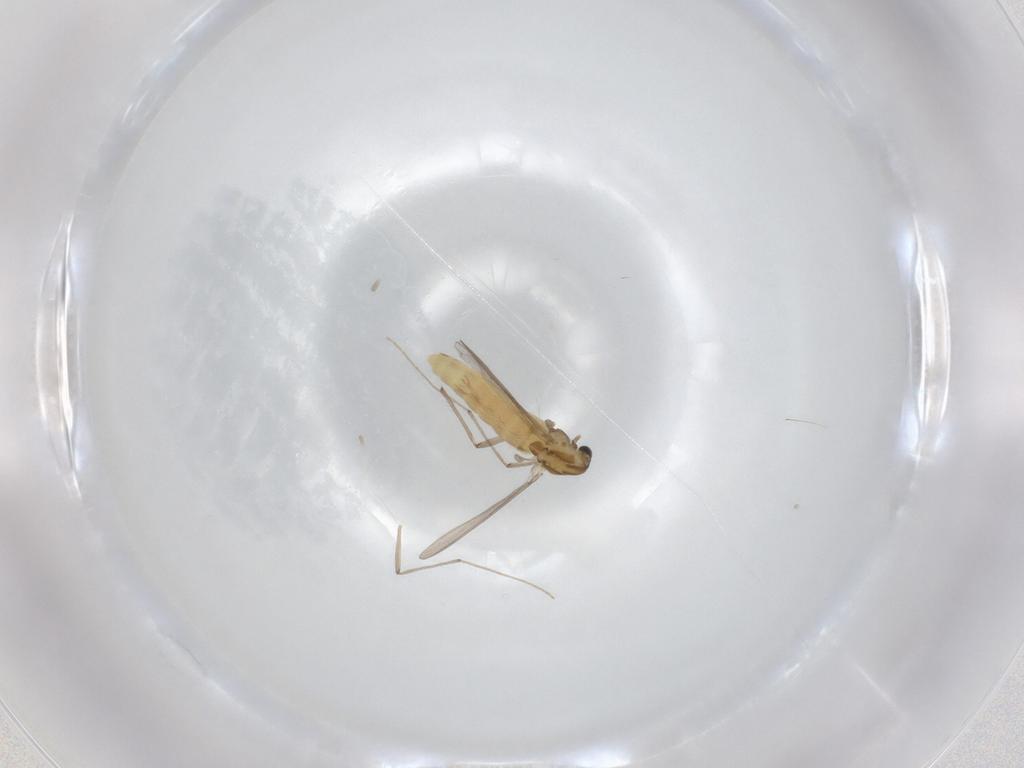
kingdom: Animalia
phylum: Arthropoda
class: Insecta
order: Diptera
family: Chironomidae
